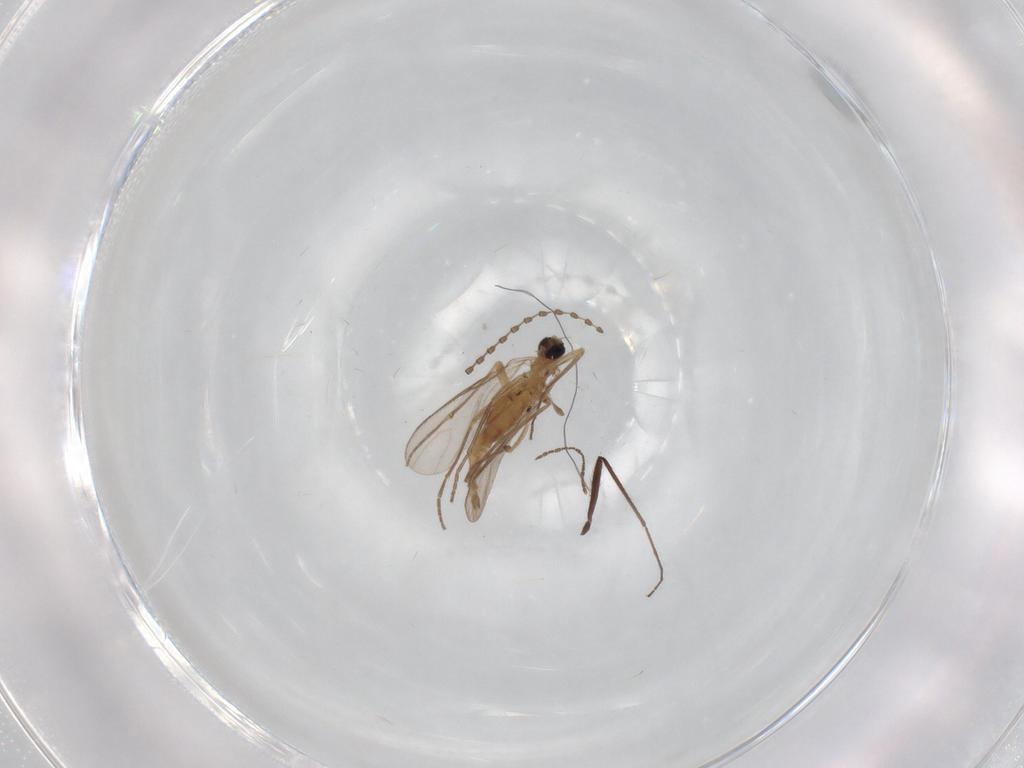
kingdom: Animalia
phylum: Arthropoda
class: Insecta
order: Diptera
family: Sciaridae
